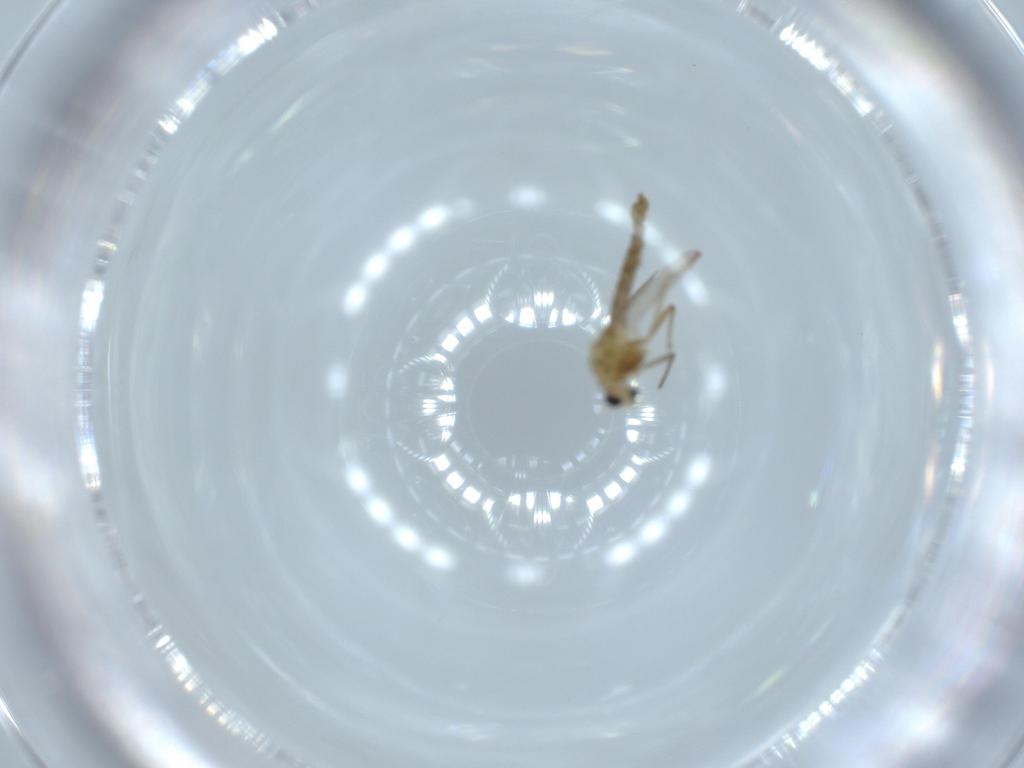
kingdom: Animalia
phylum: Arthropoda
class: Insecta
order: Diptera
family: Chironomidae
